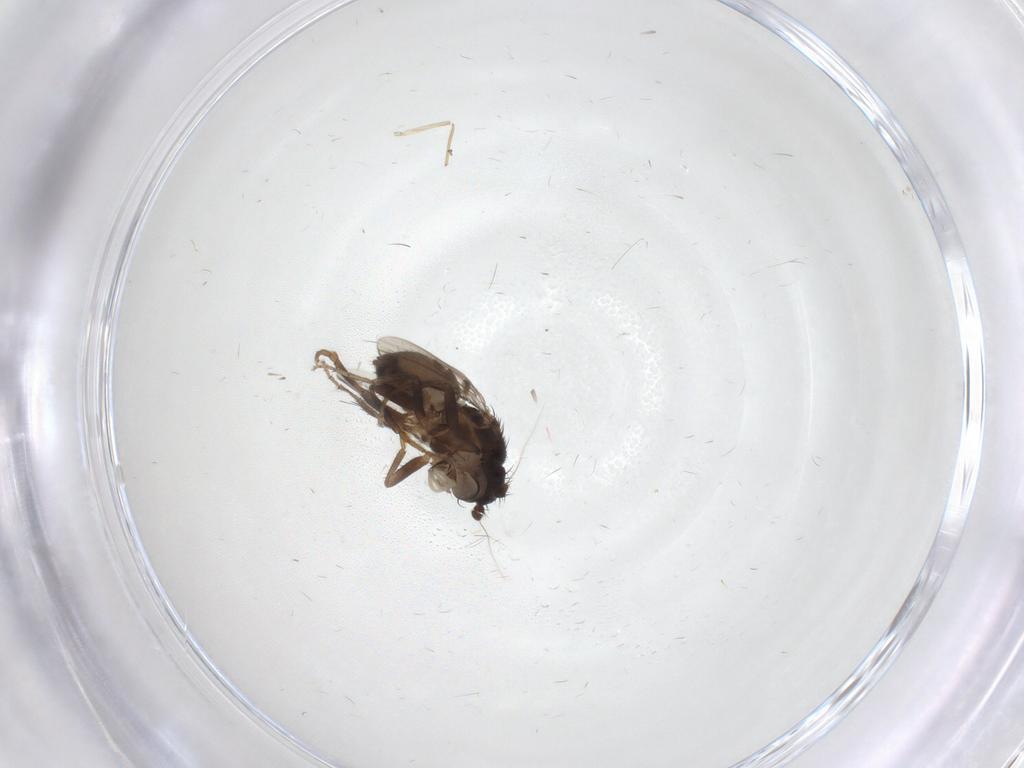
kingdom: Animalia
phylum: Arthropoda
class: Insecta
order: Diptera
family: Sphaeroceridae
